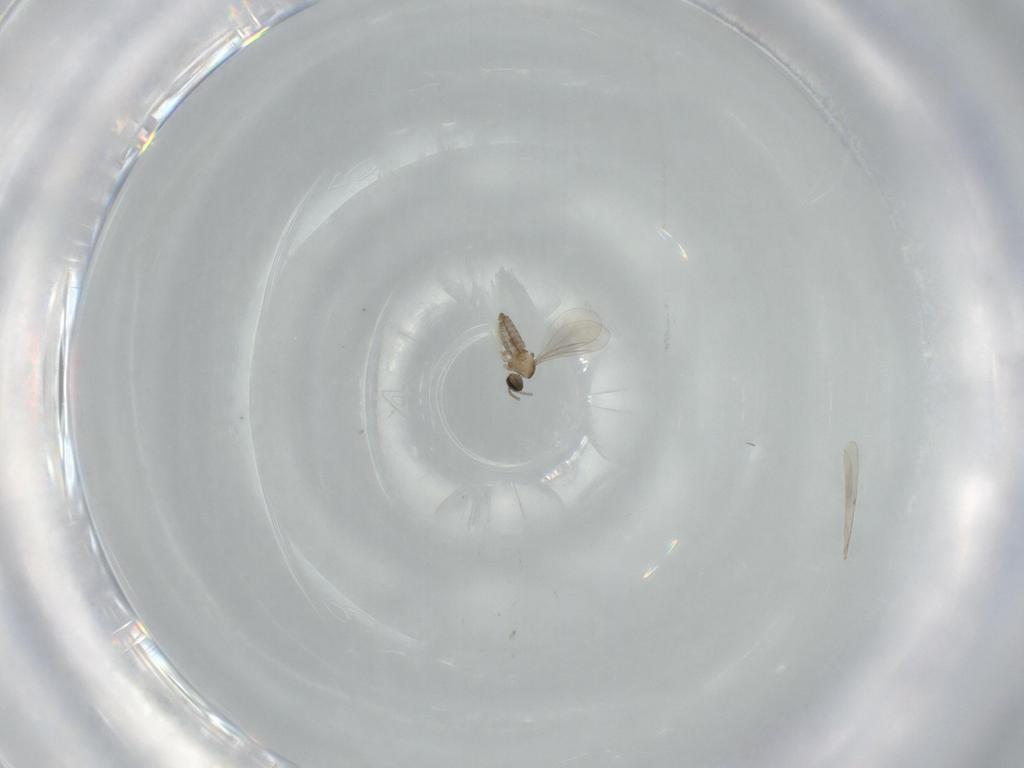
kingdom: Animalia
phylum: Arthropoda
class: Insecta
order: Diptera
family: Cecidomyiidae
